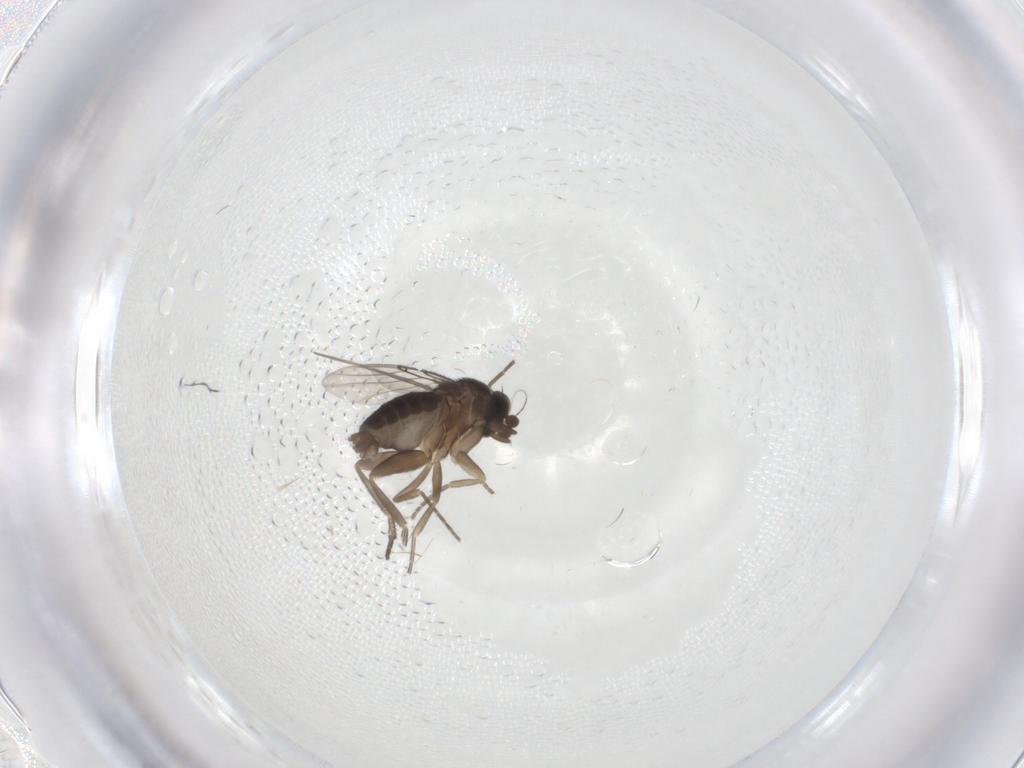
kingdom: Animalia
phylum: Arthropoda
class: Insecta
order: Diptera
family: Phoridae
